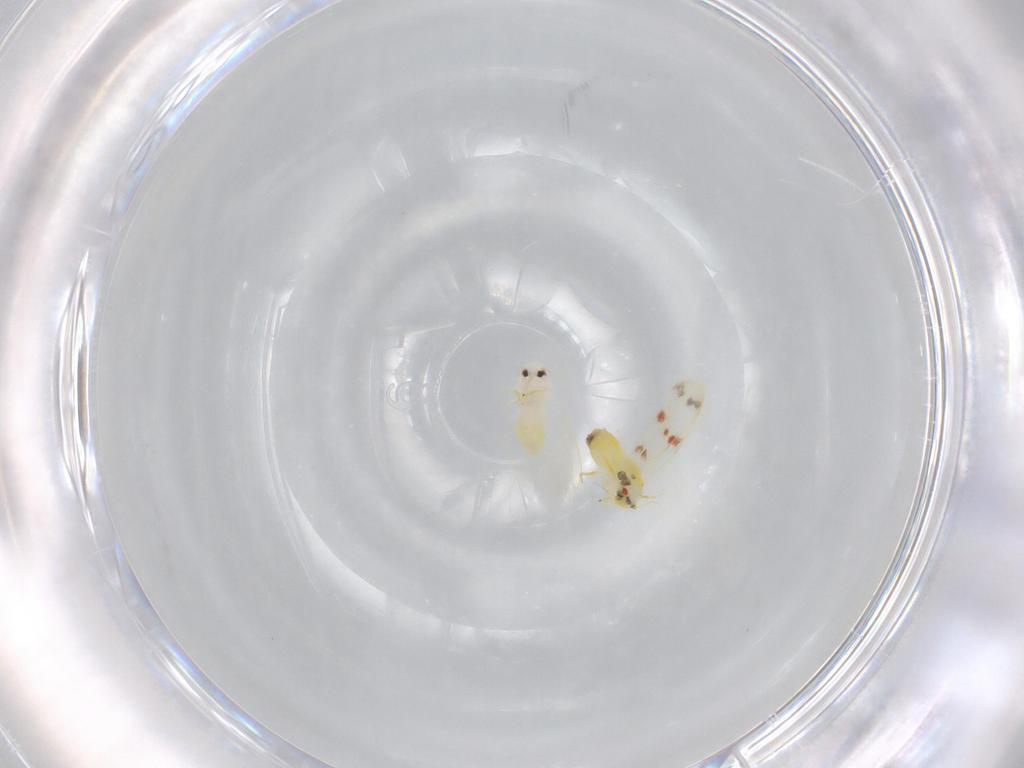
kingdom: Animalia
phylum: Arthropoda
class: Insecta
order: Hemiptera
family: Aleyrodidae
